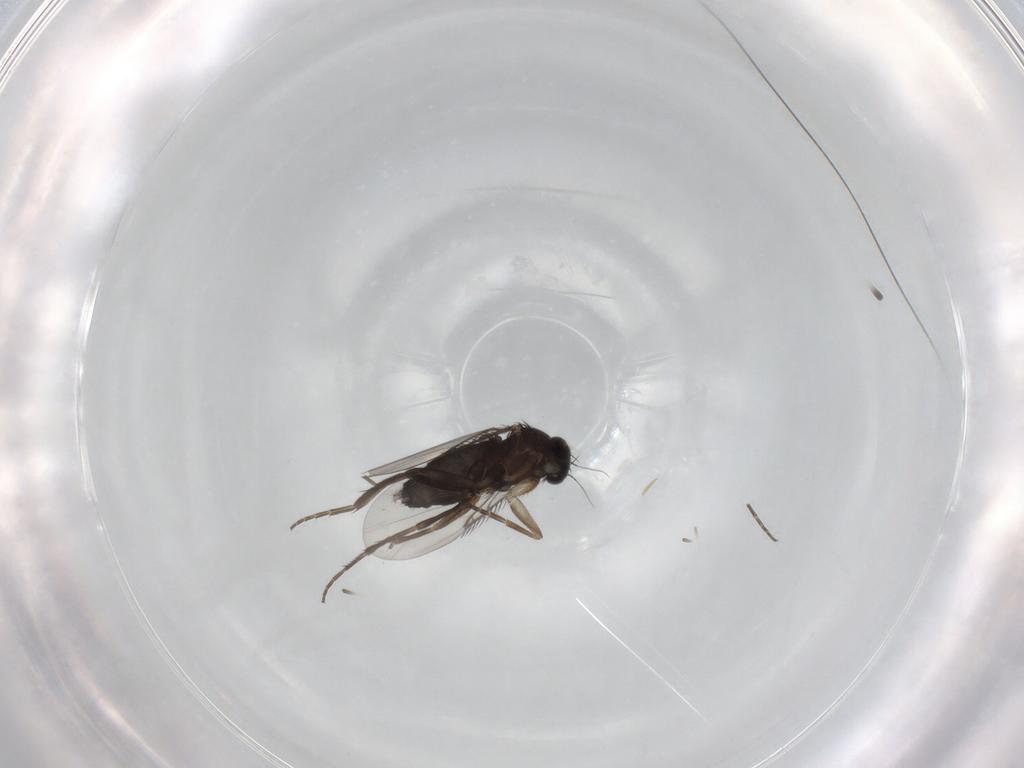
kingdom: Animalia
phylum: Arthropoda
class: Insecta
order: Diptera
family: Phoridae
